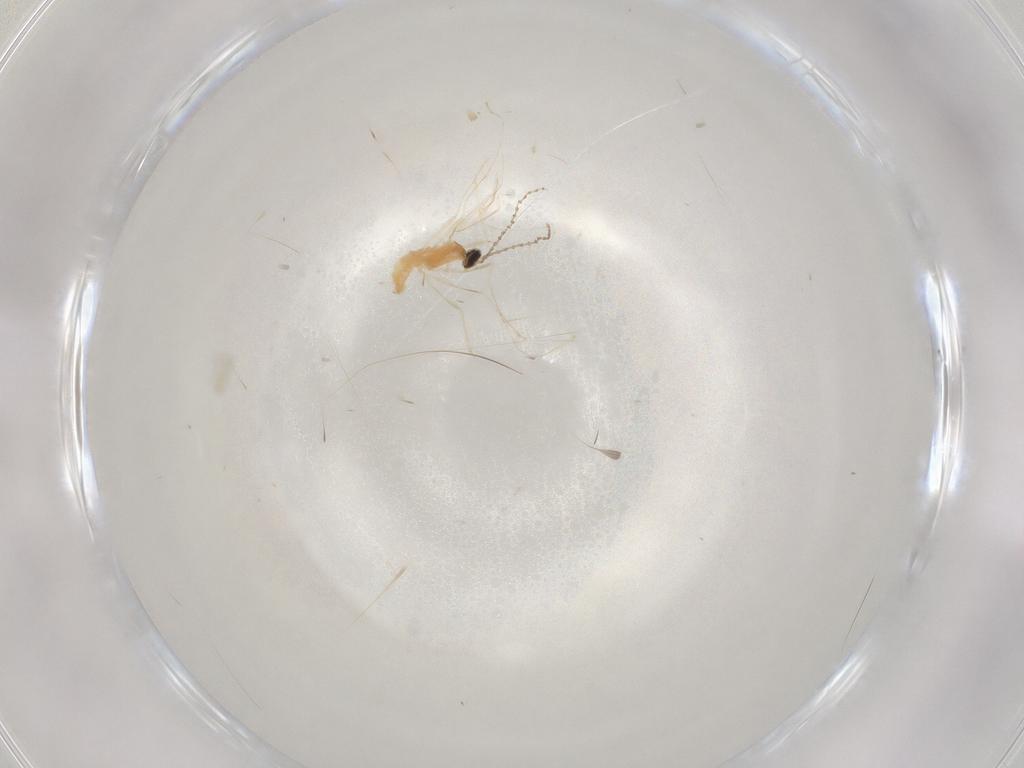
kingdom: Animalia
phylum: Arthropoda
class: Insecta
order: Diptera
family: Cecidomyiidae
